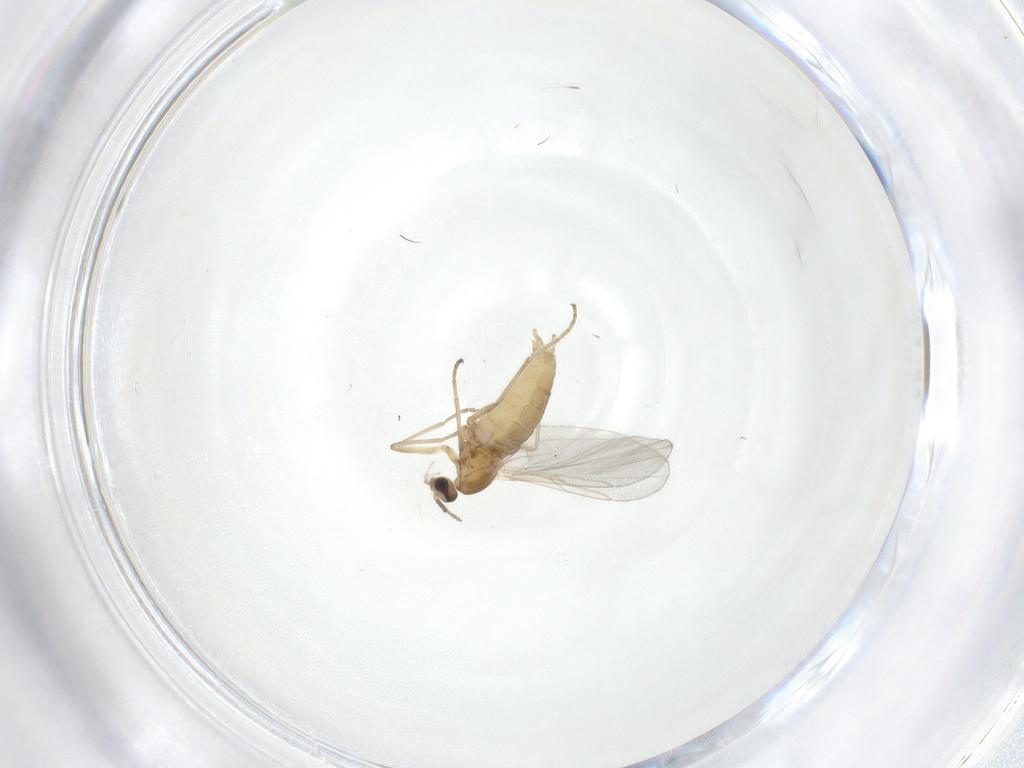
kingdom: Animalia
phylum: Arthropoda
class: Insecta
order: Diptera
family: Cecidomyiidae
